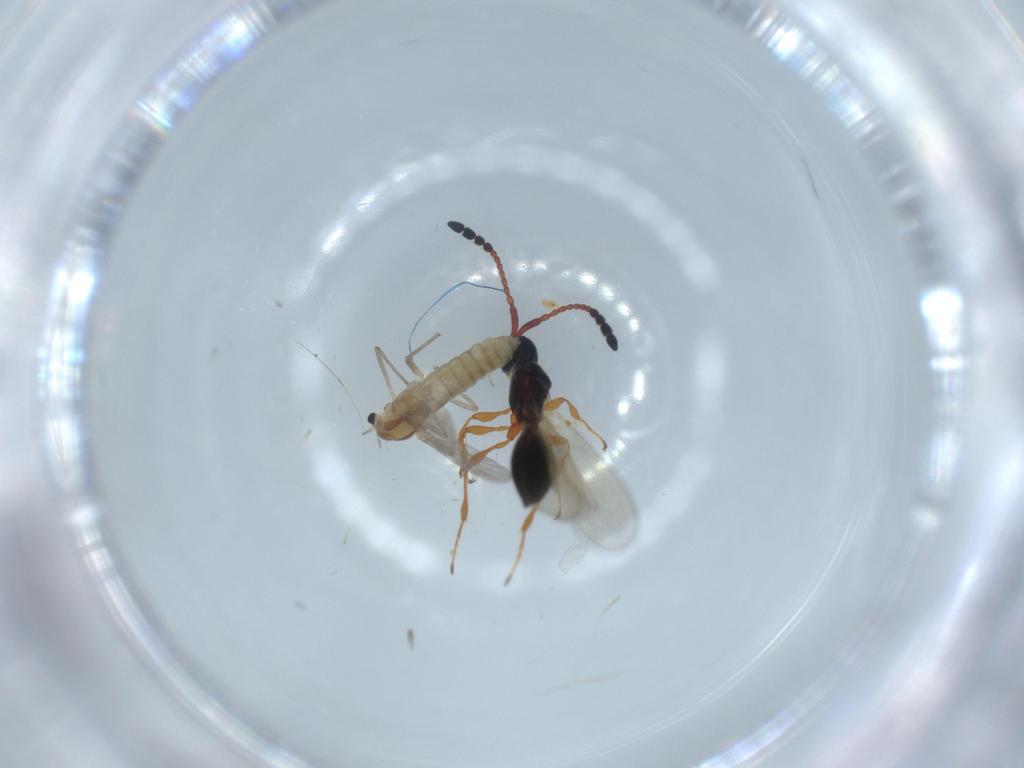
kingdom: Animalia
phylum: Arthropoda
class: Insecta
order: Diptera
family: Chironomidae
